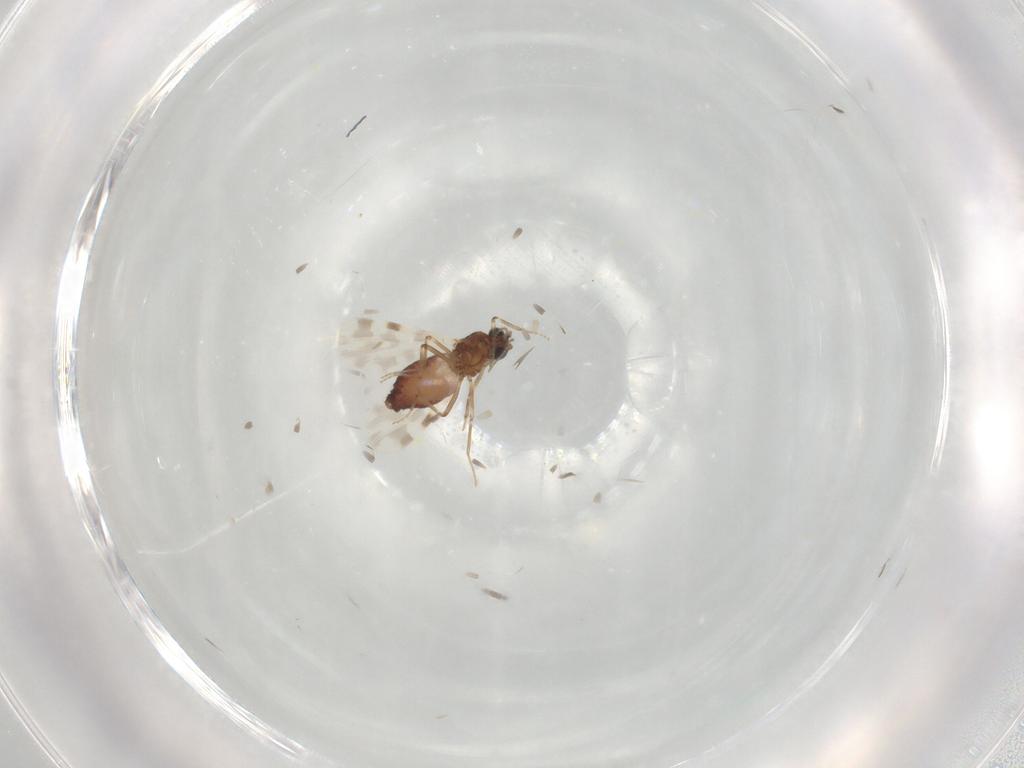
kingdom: Animalia
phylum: Arthropoda
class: Insecta
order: Diptera
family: Ceratopogonidae
